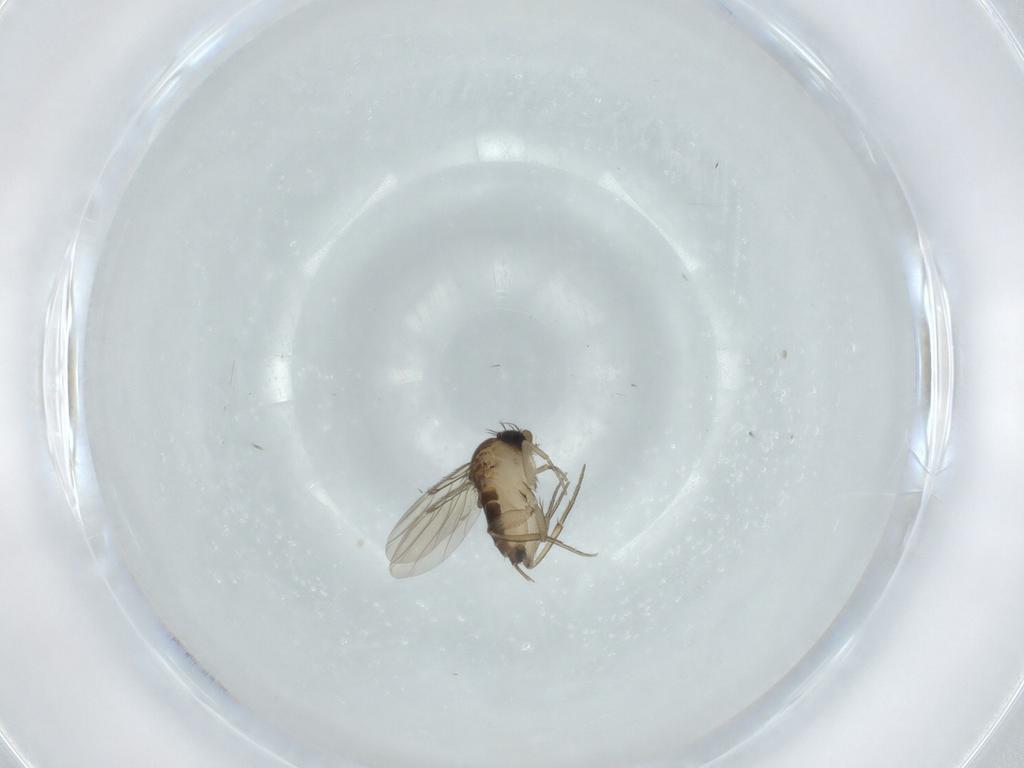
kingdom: Animalia
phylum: Arthropoda
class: Insecta
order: Diptera
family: Phoridae
